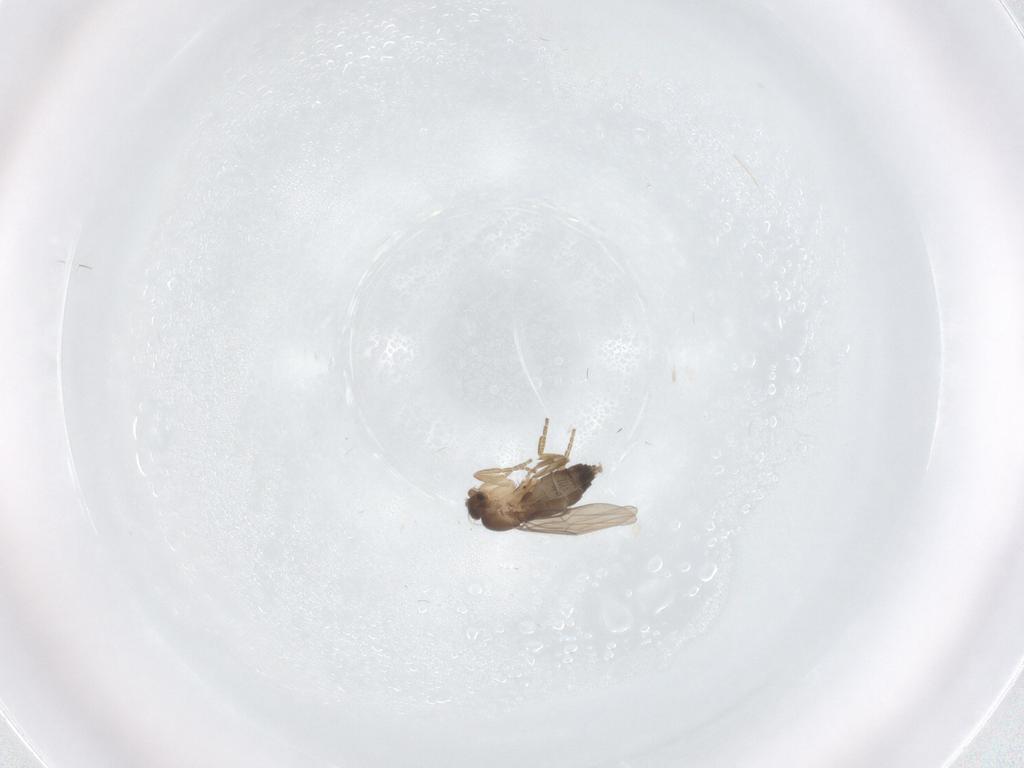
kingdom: Animalia
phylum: Arthropoda
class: Insecta
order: Diptera
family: Phoridae
